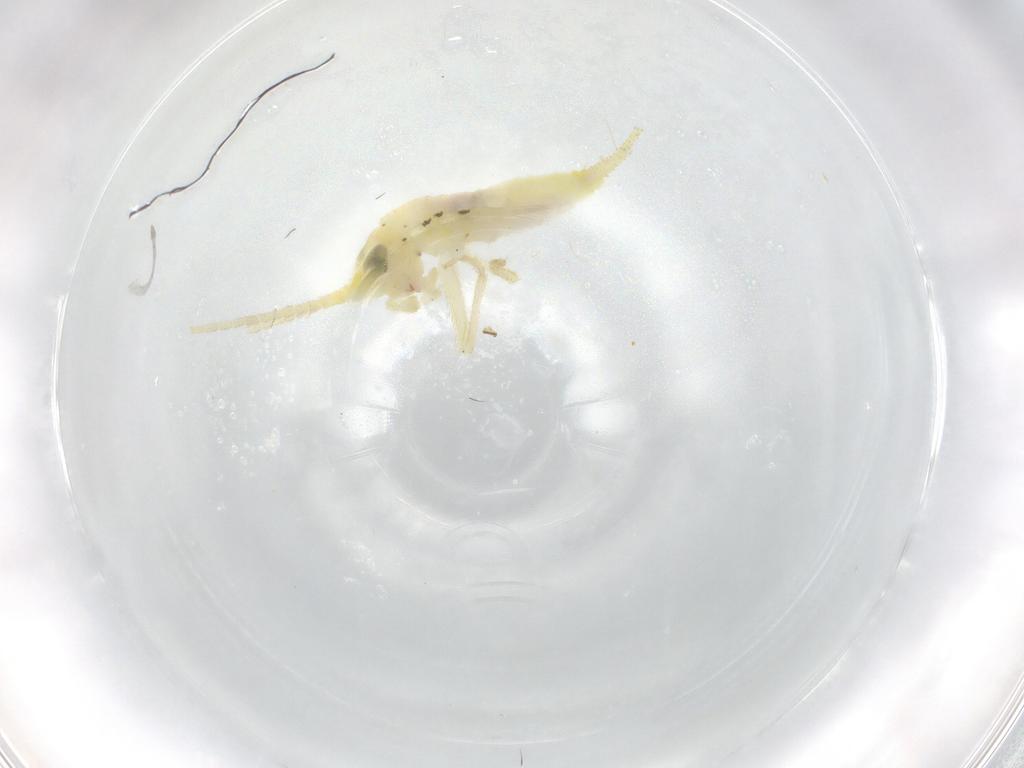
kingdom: Animalia
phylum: Arthropoda
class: Insecta
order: Orthoptera
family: Trigonidiidae
